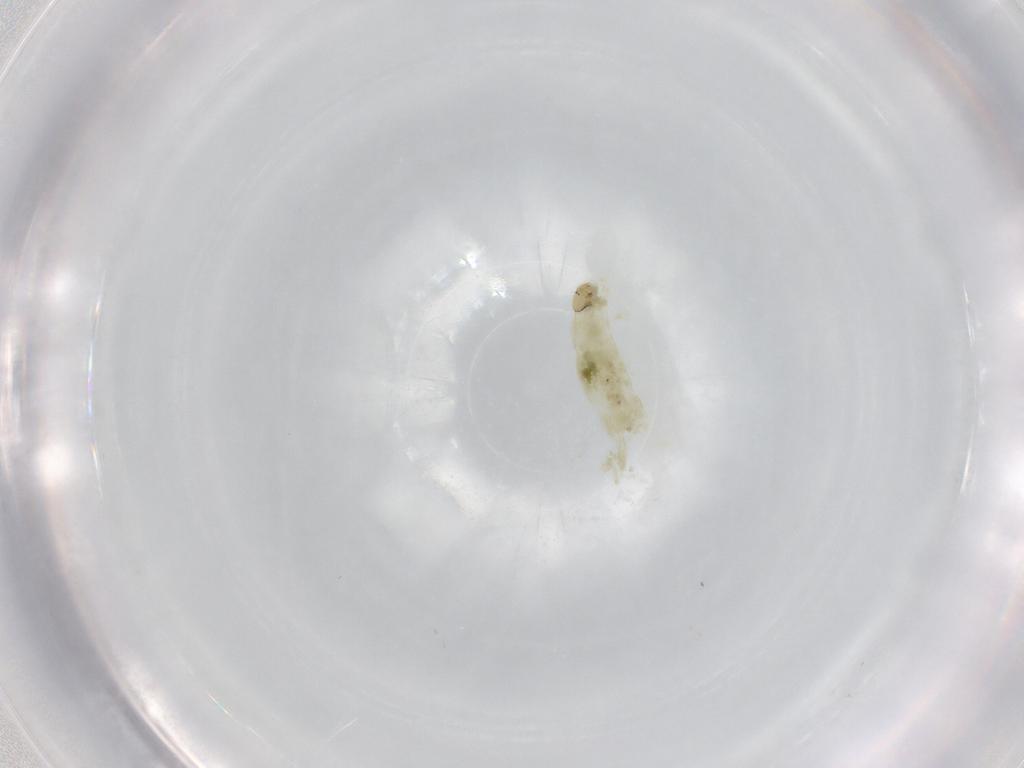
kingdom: Animalia
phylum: Arthropoda
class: Insecta
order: Diptera
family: Chironomidae
